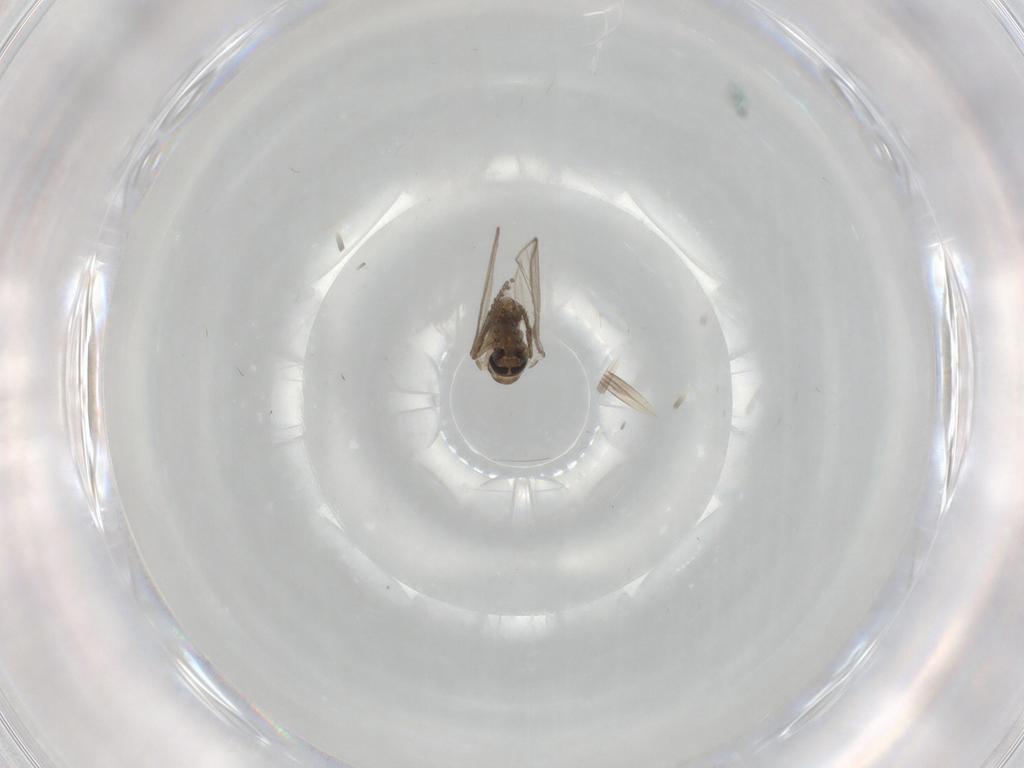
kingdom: Animalia
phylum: Arthropoda
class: Insecta
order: Diptera
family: Psychodidae
